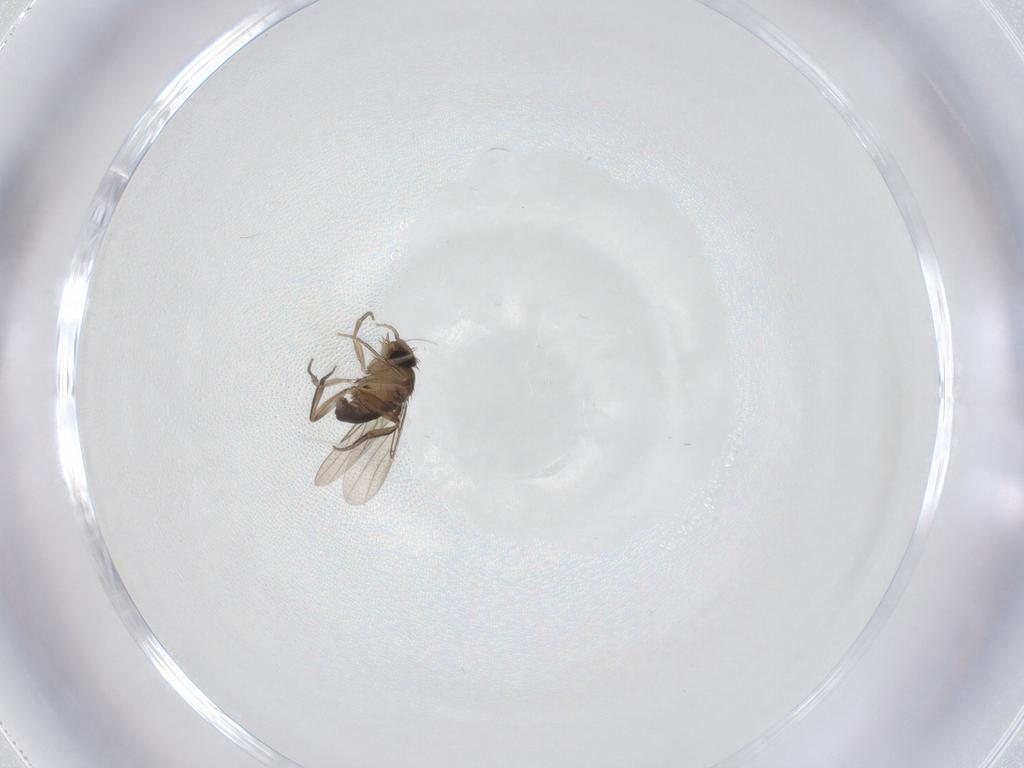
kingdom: Animalia
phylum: Arthropoda
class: Insecta
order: Diptera
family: Phoridae
